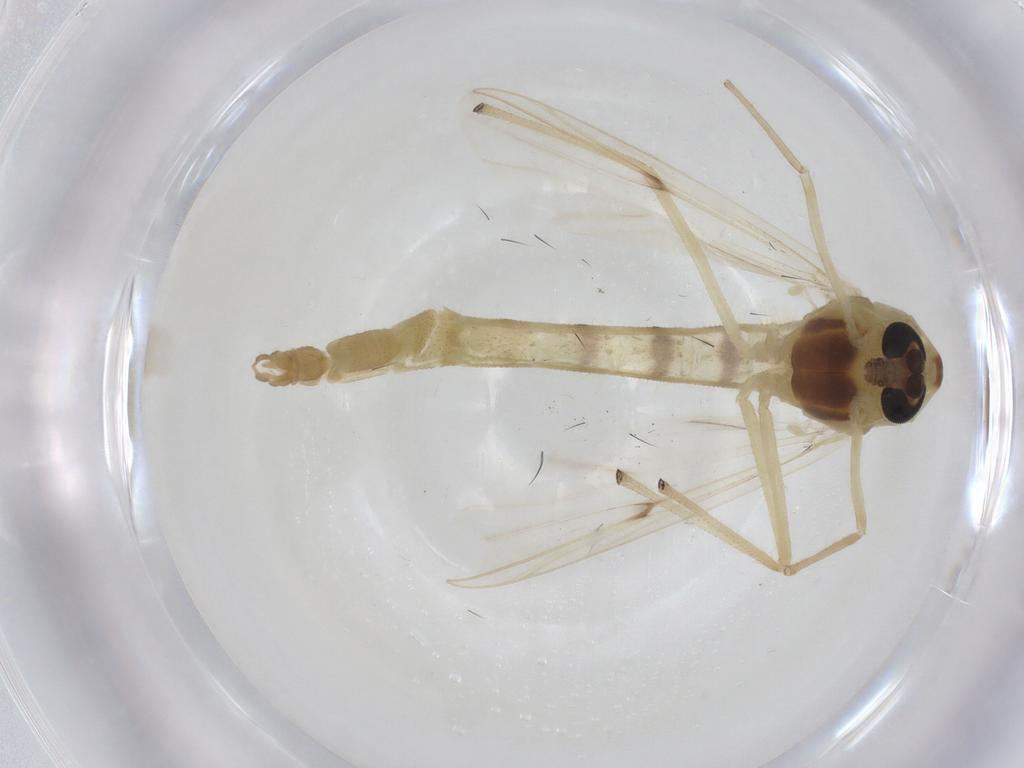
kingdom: Animalia
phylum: Arthropoda
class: Insecta
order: Diptera
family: Chironomidae
